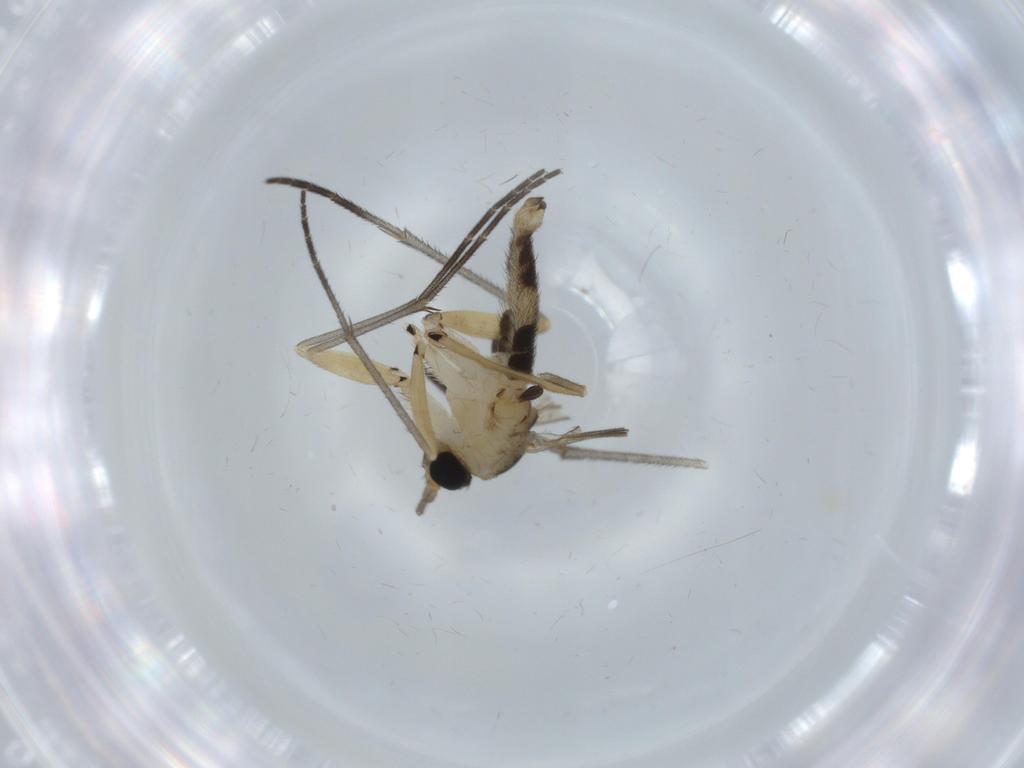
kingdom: Animalia
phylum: Arthropoda
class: Insecta
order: Diptera
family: Sciaridae
